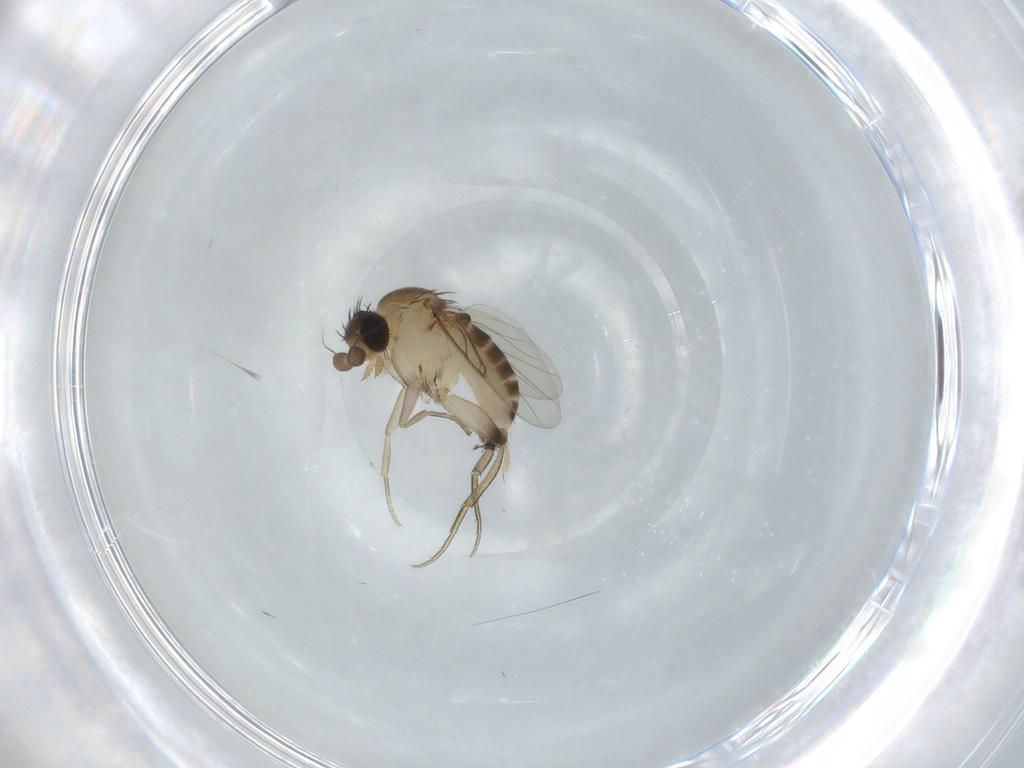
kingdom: Animalia
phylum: Arthropoda
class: Insecta
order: Diptera
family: Phoridae
